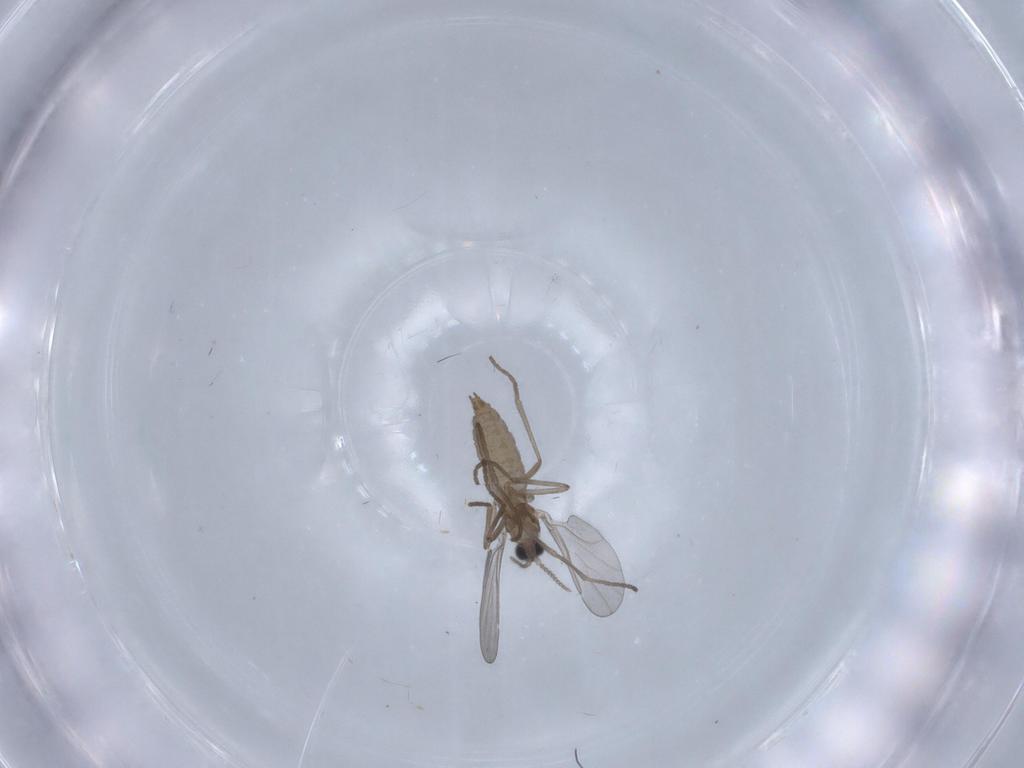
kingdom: Animalia
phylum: Arthropoda
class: Insecta
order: Diptera
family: Cecidomyiidae
